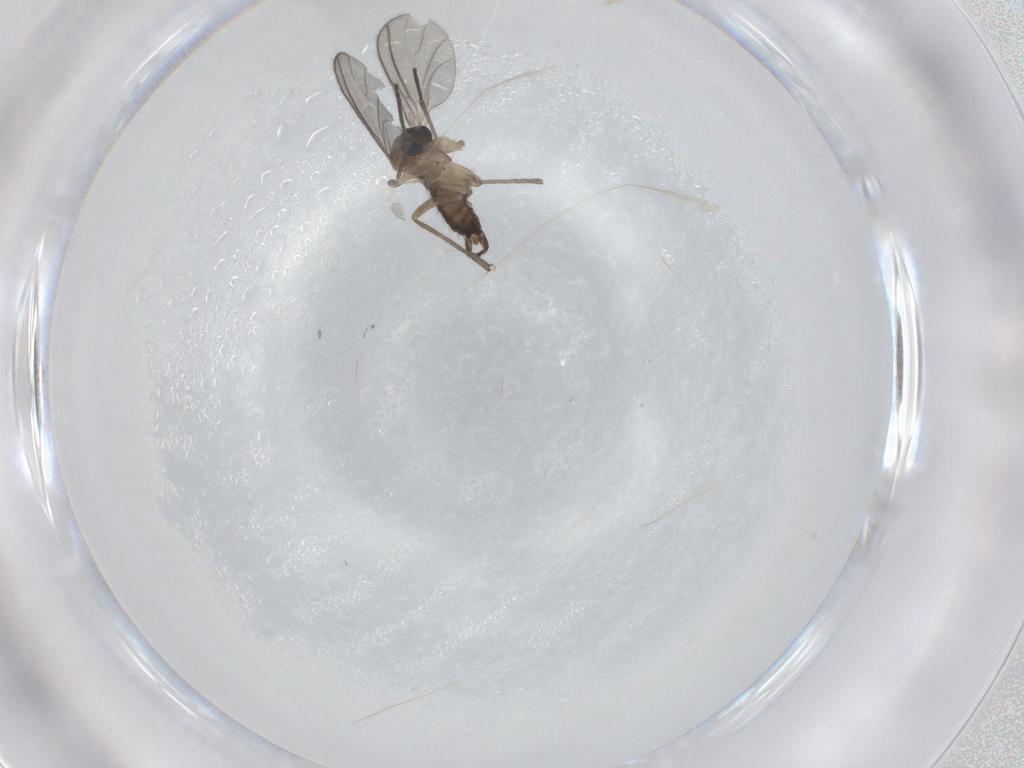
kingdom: Animalia
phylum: Arthropoda
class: Insecta
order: Diptera
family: Sciaridae
